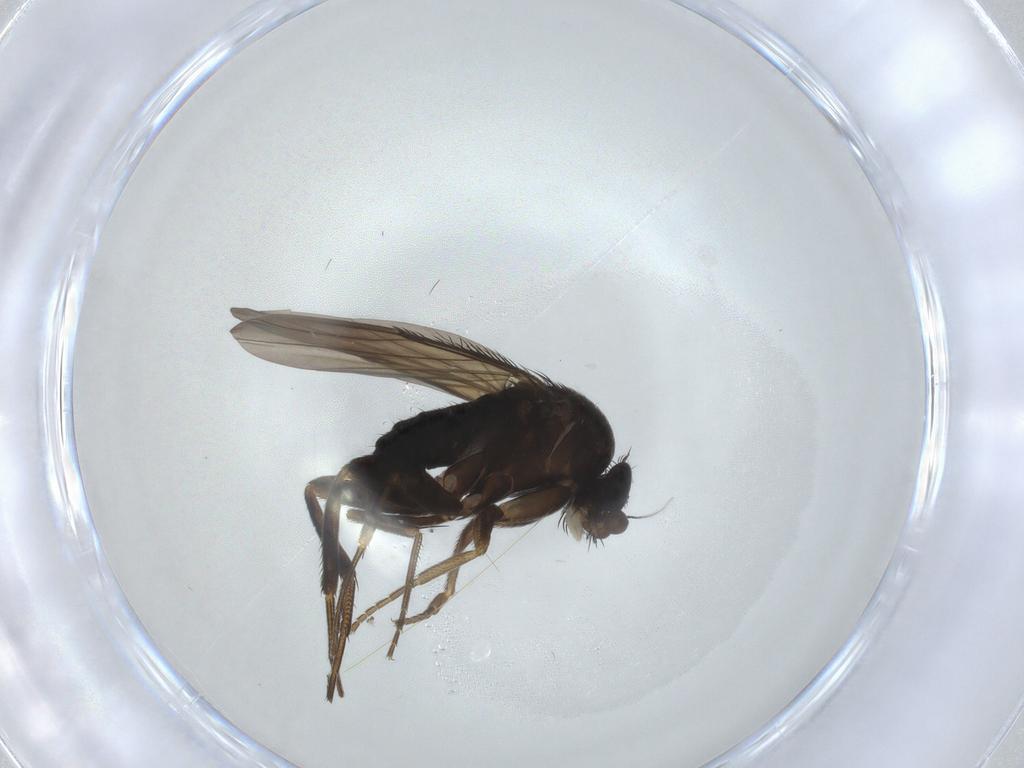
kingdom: Animalia
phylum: Arthropoda
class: Insecta
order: Diptera
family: Phoridae
